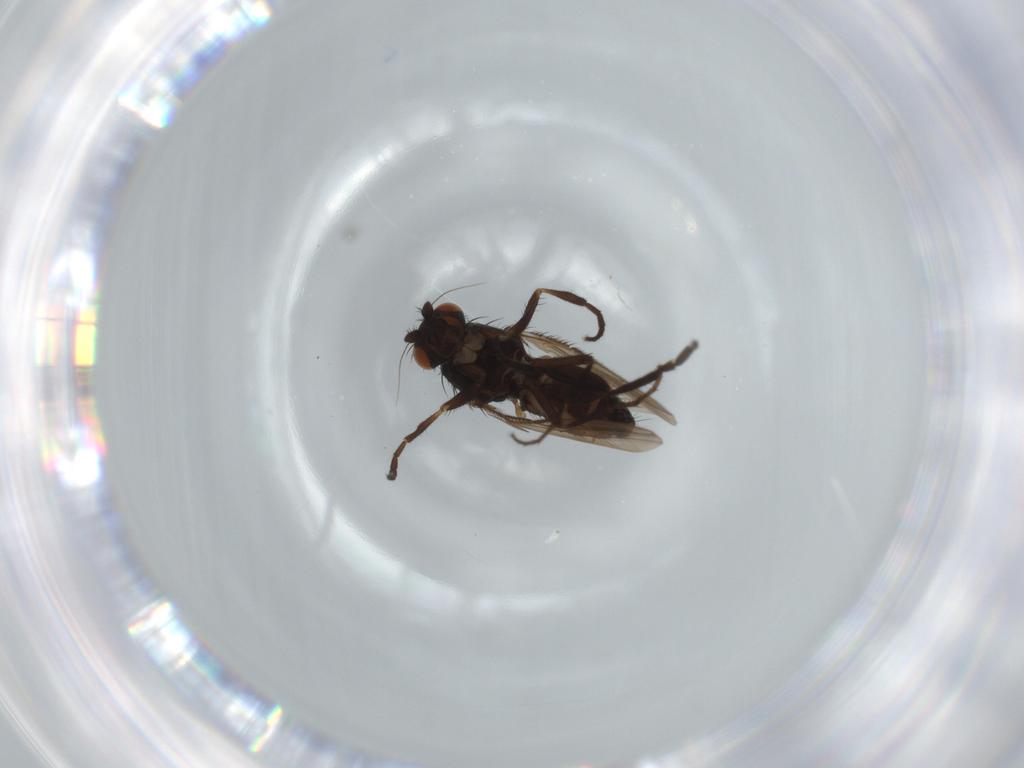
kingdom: Animalia
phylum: Arthropoda
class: Insecta
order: Diptera
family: Sphaeroceridae
